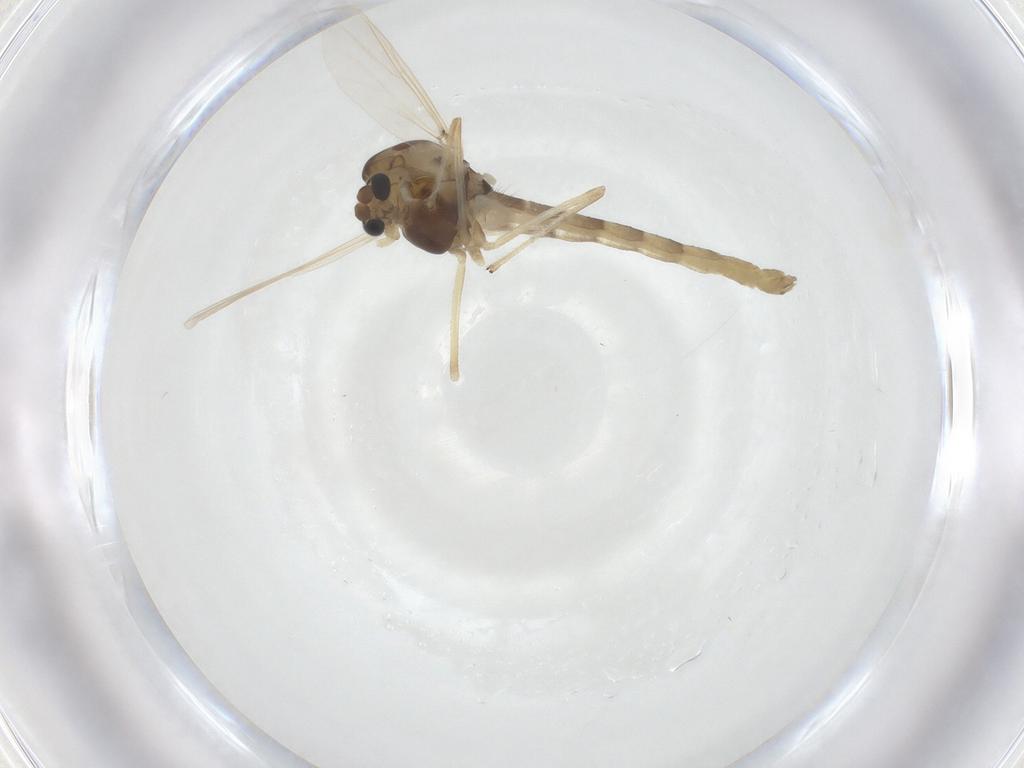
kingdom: Animalia
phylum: Arthropoda
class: Insecta
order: Diptera
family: Chironomidae
